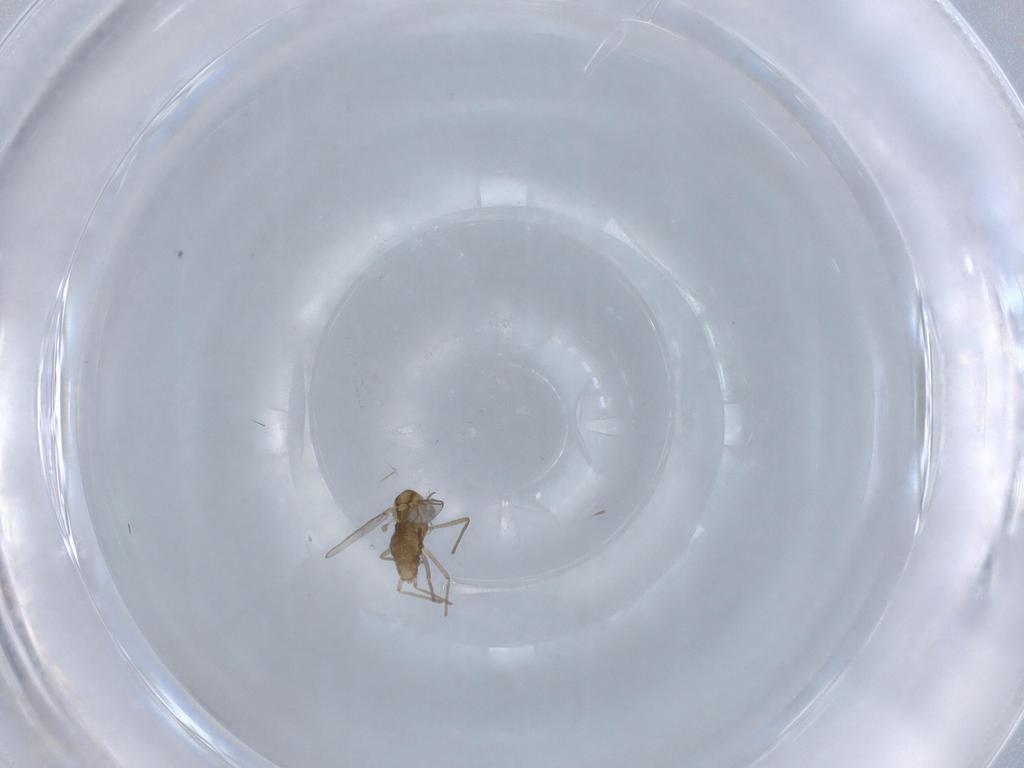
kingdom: Animalia
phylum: Arthropoda
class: Insecta
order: Diptera
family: Chironomidae
